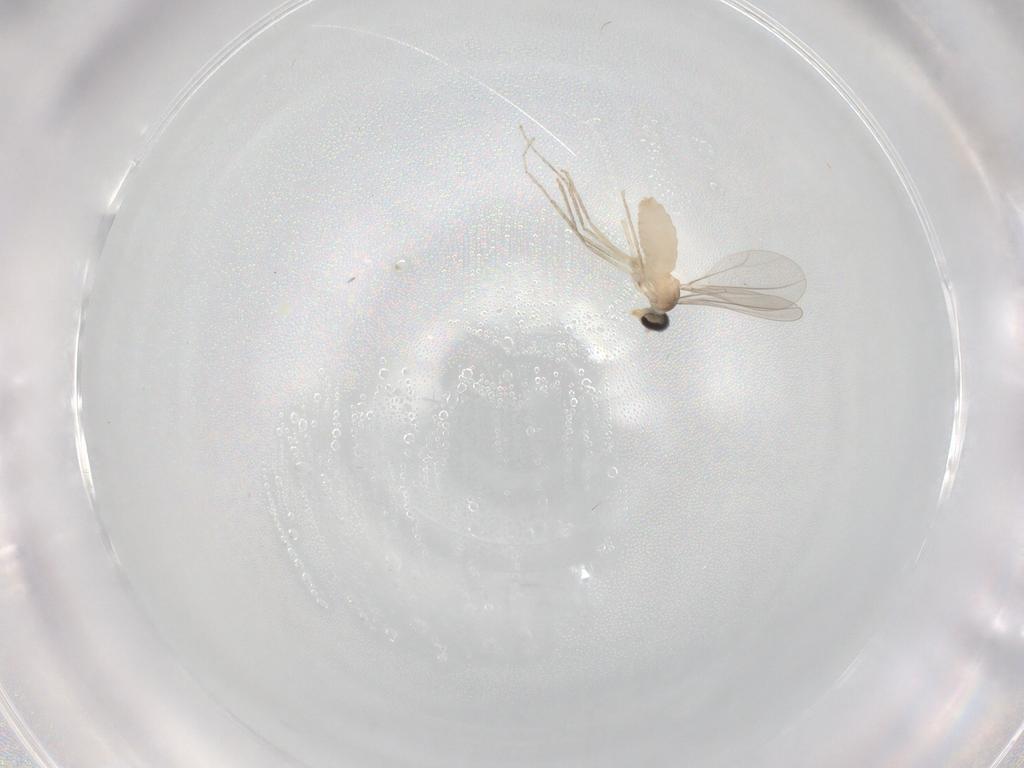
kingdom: Animalia
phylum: Arthropoda
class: Insecta
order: Diptera
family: Cecidomyiidae
